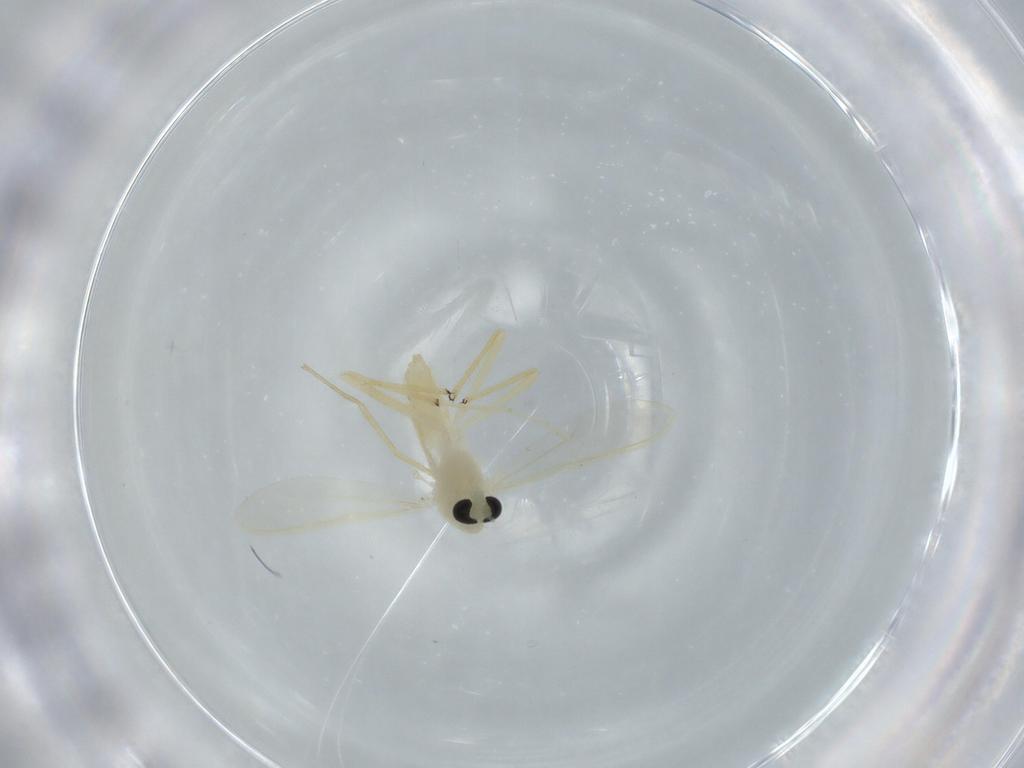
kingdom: Animalia
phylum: Arthropoda
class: Insecta
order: Diptera
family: Chironomidae
